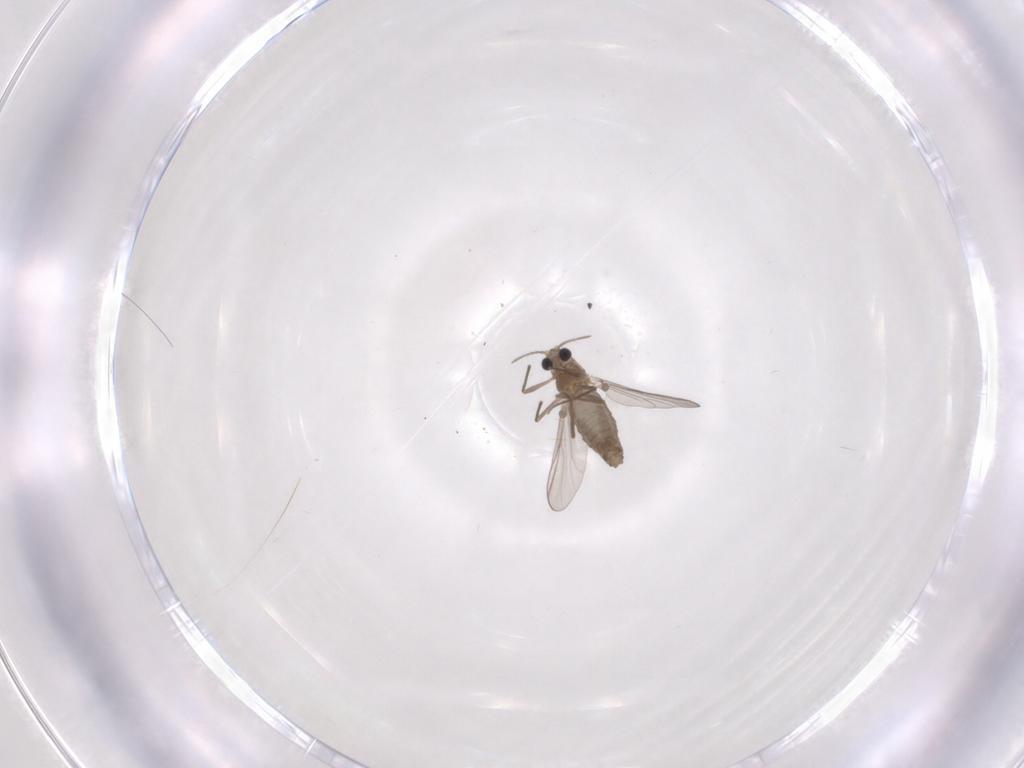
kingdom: Animalia
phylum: Arthropoda
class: Insecta
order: Diptera
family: Chironomidae
